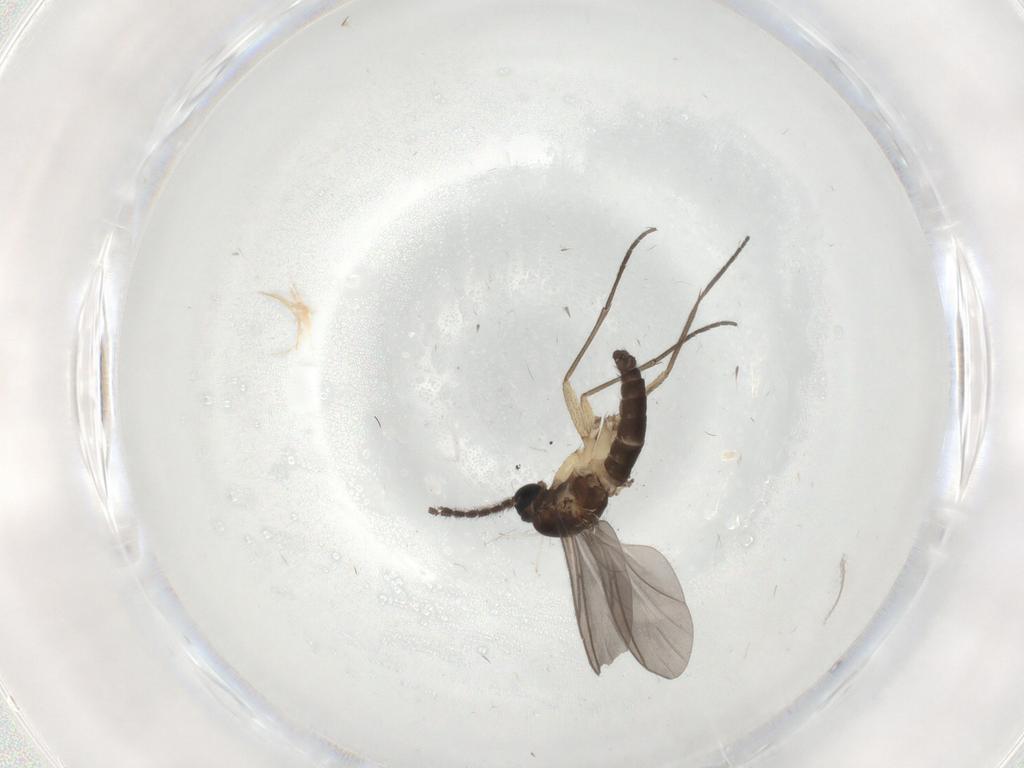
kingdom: Animalia
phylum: Arthropoda
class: Insecta
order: Diptera
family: Sciaridae
